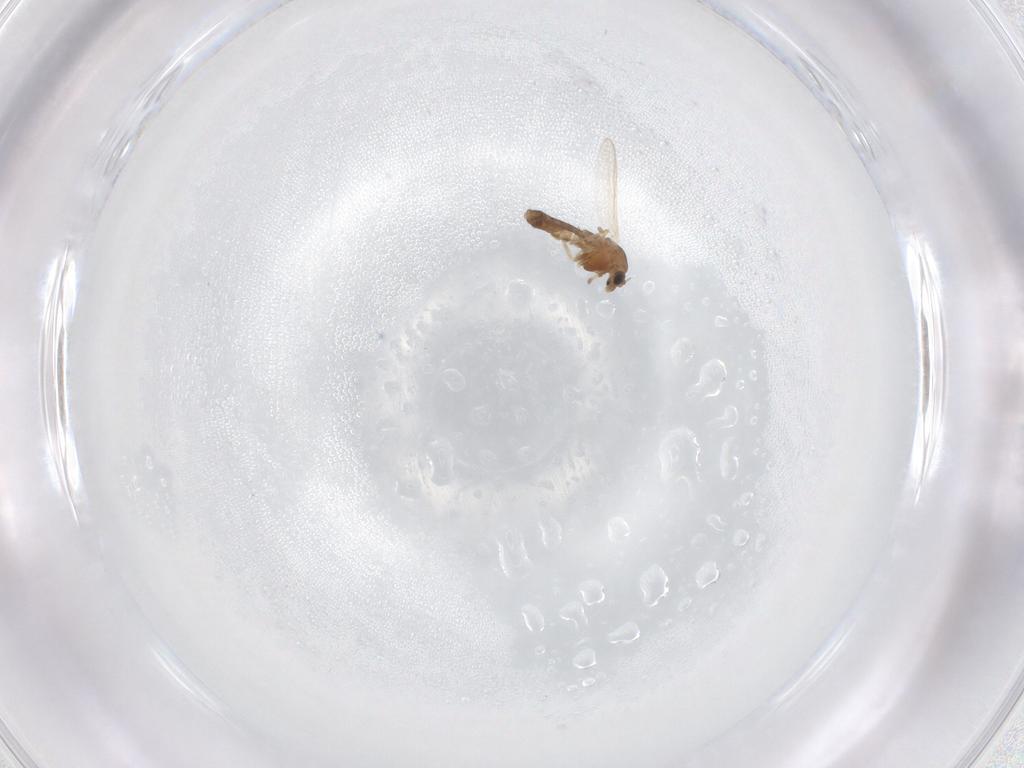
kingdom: Animalia
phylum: Arthropoda
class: Insecta
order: Diptera
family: Chironomidae
